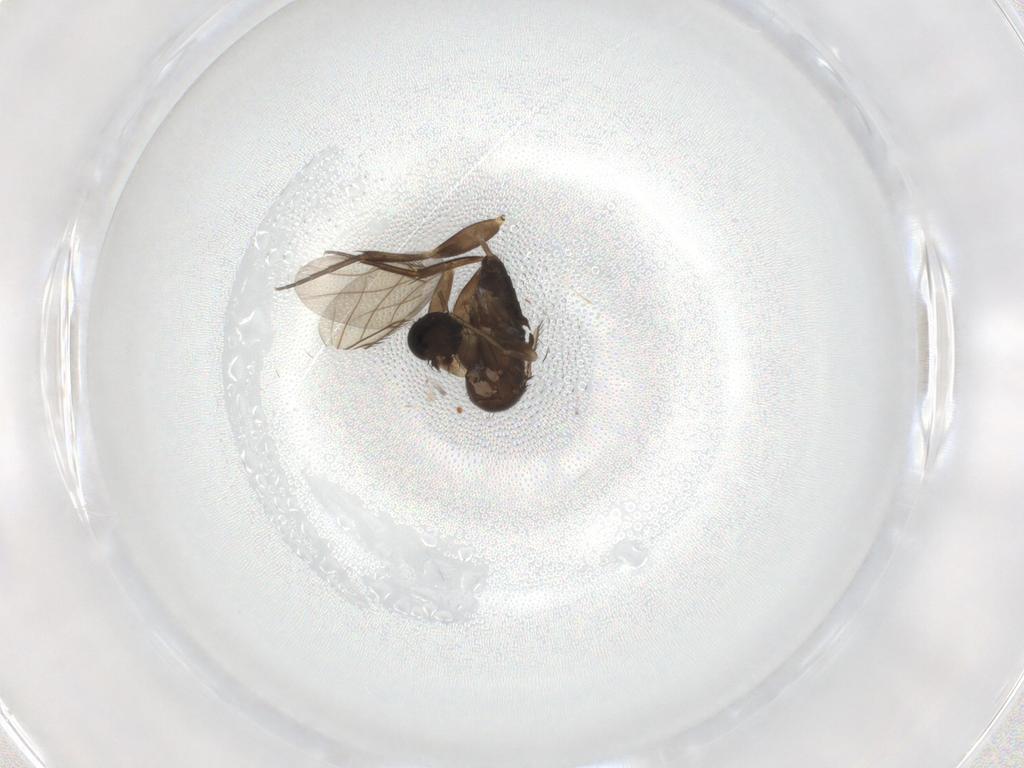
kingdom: Animalia
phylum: Arthropoda
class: Insecta
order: Diptera
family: Phoridae
